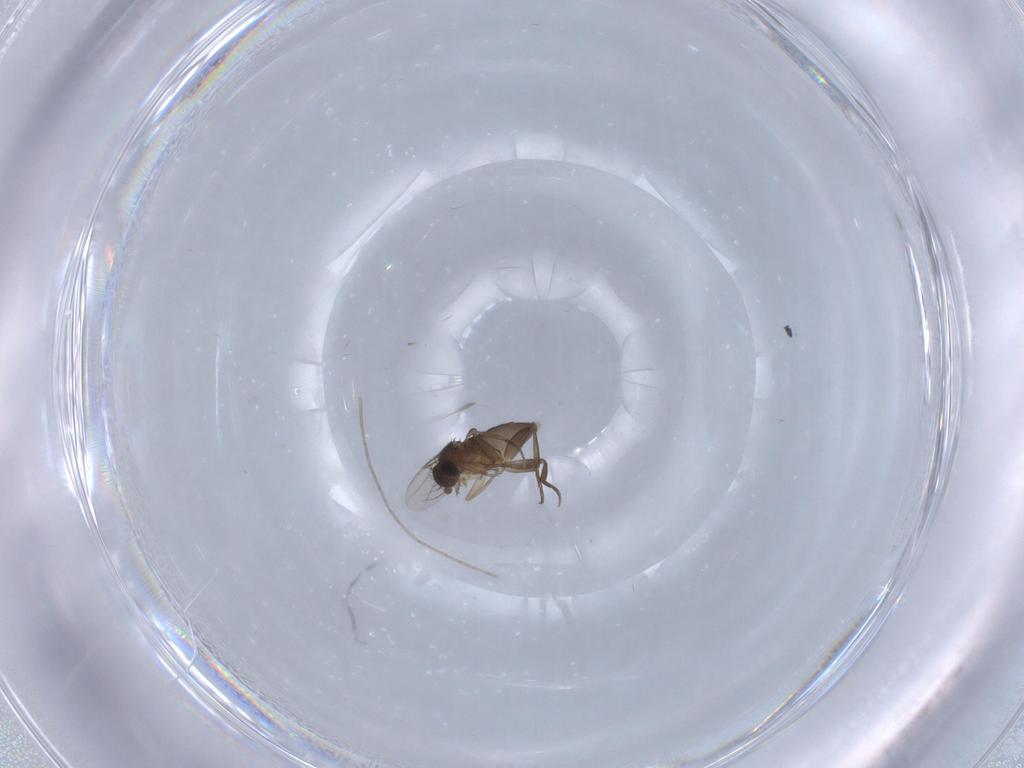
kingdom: Animalia
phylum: Arthropoda
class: Insecta
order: Diptera
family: Phoridae
